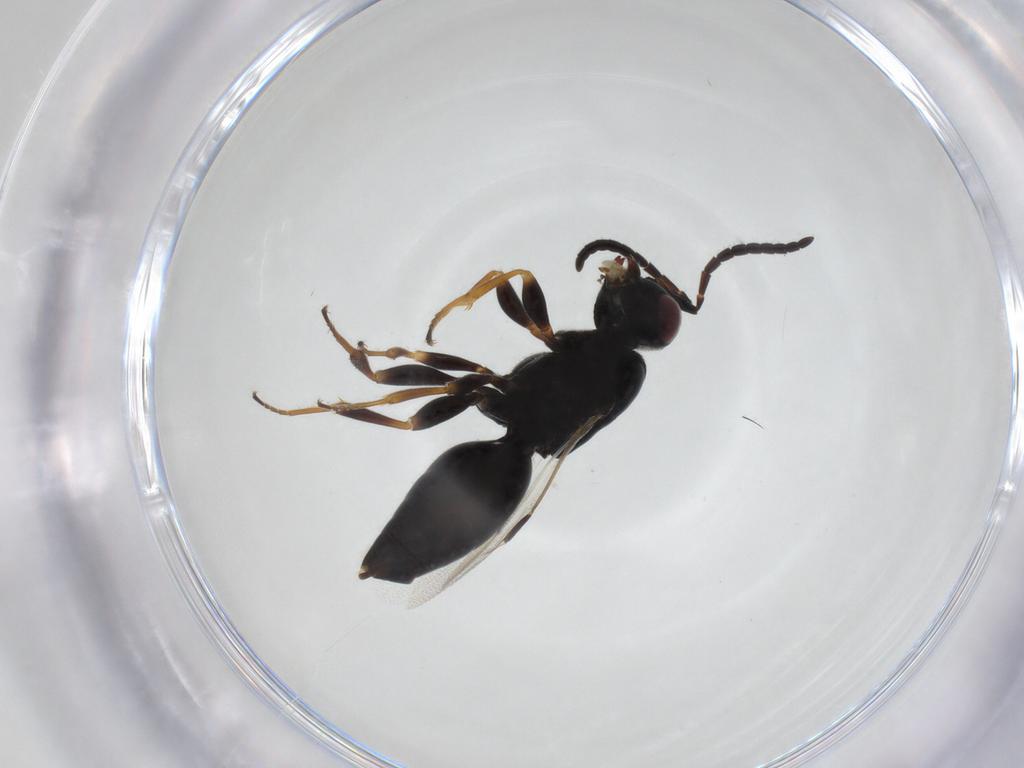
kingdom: Animalia
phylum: Arthropoda
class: Insecta
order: Hymenoptera
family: Megaspilidae
